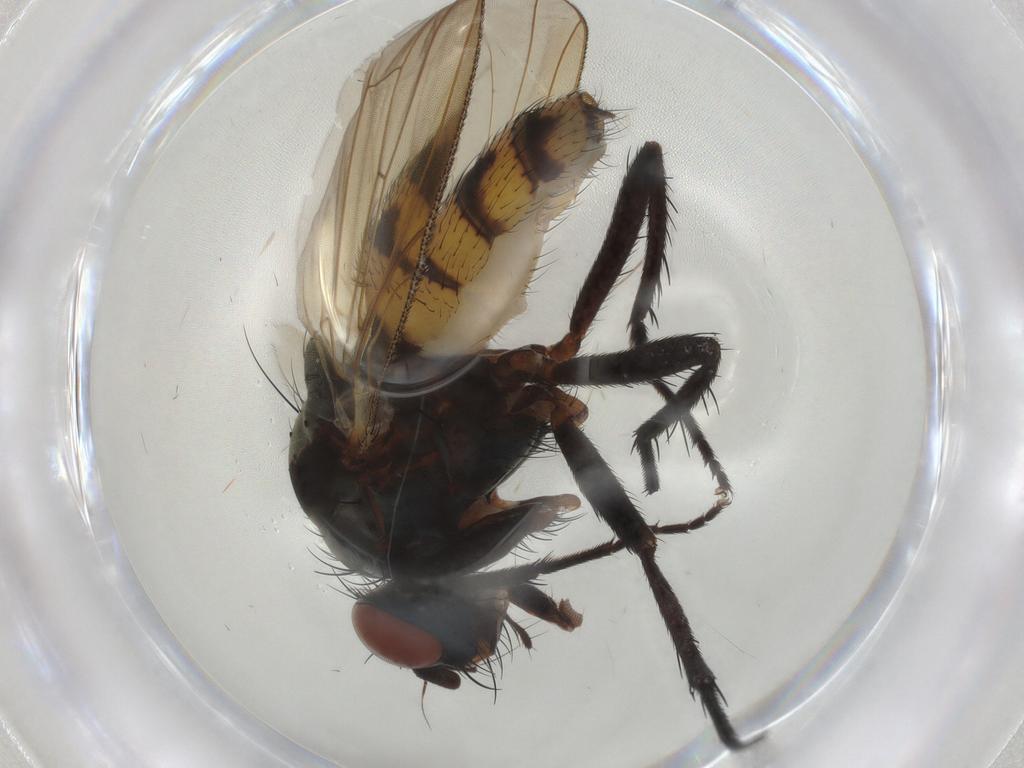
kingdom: Animalia
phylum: Arthropoda
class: Insecta
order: Diptera
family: Anthomyiidae
